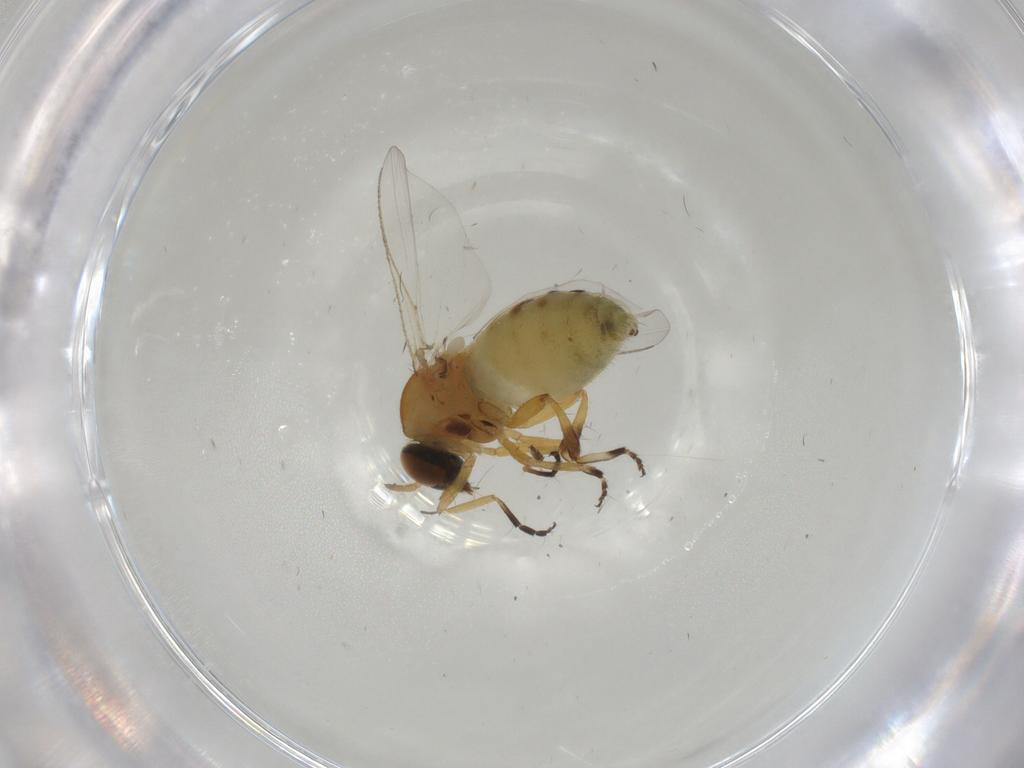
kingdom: Animalia
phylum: Arthropoda
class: Insecta
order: Diptera
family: Simuliidae
